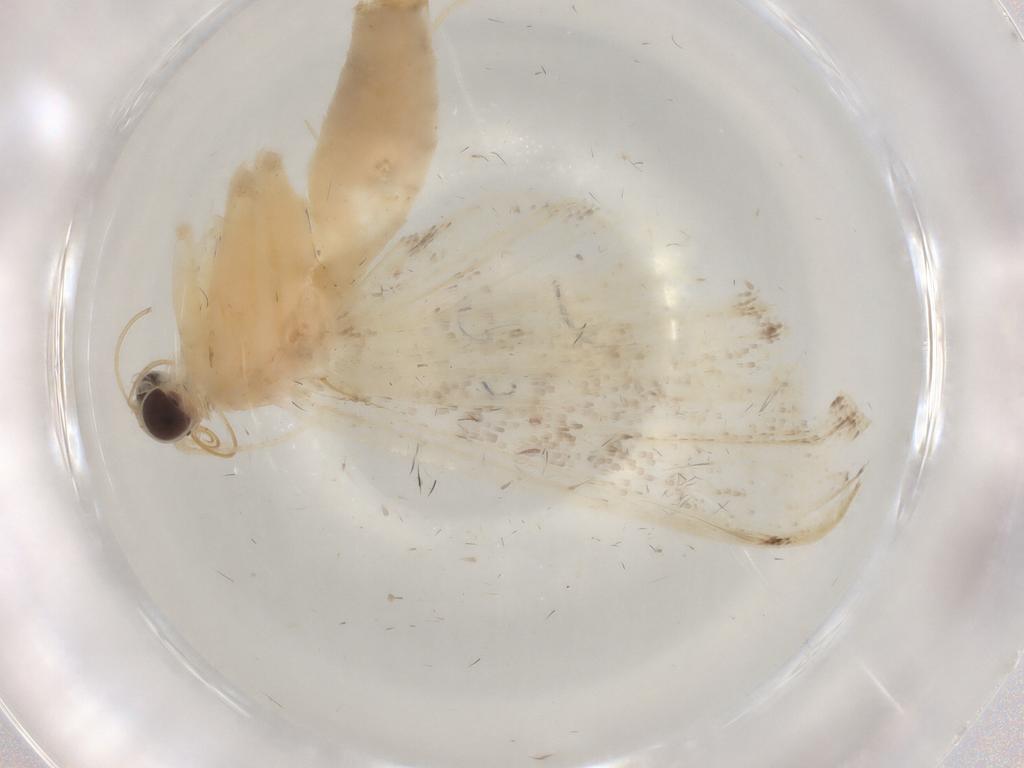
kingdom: Animalia
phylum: Arthropoda
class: Insecta
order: Lepidoptera
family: Crambidae
